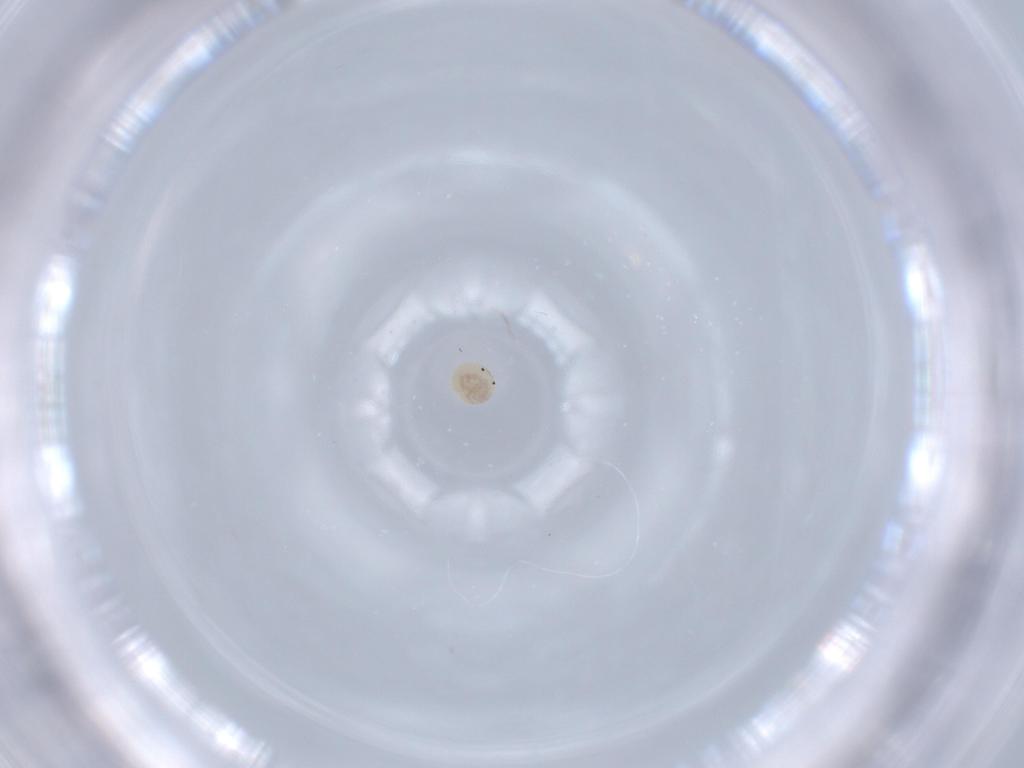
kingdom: Animalia
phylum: Arthropoda
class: Arachnida
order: Trombidiformes
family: Lebertiidae
